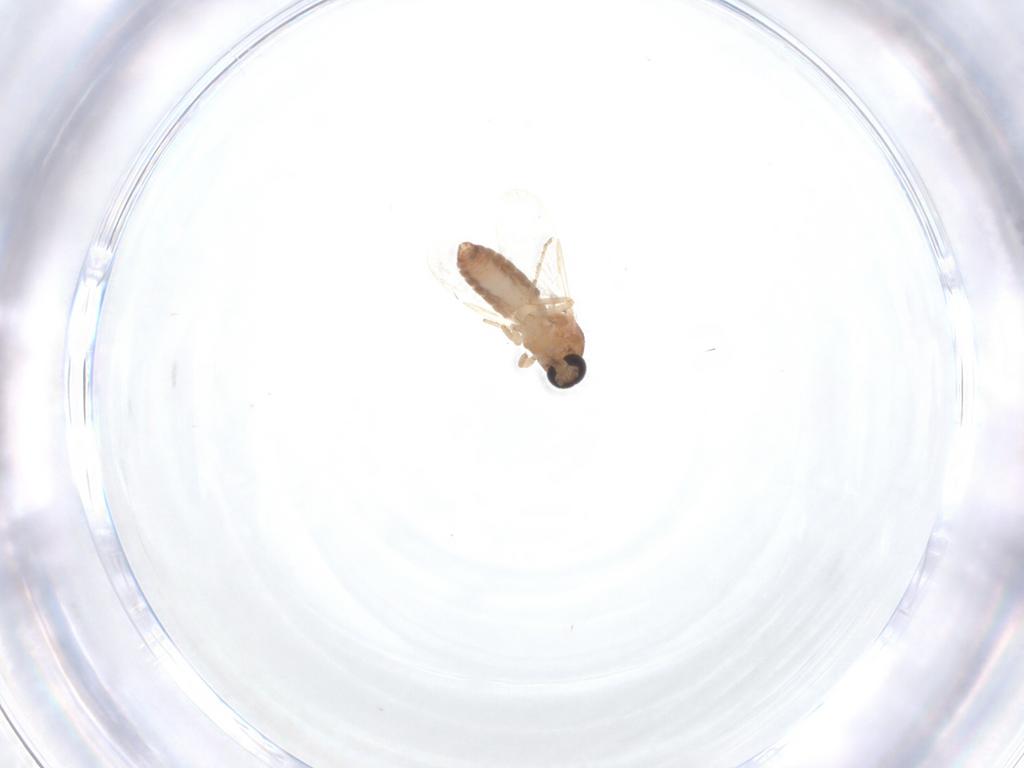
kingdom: Animalia
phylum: Arthropoda
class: Insecta
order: Diptera
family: Ceratopogonidae
